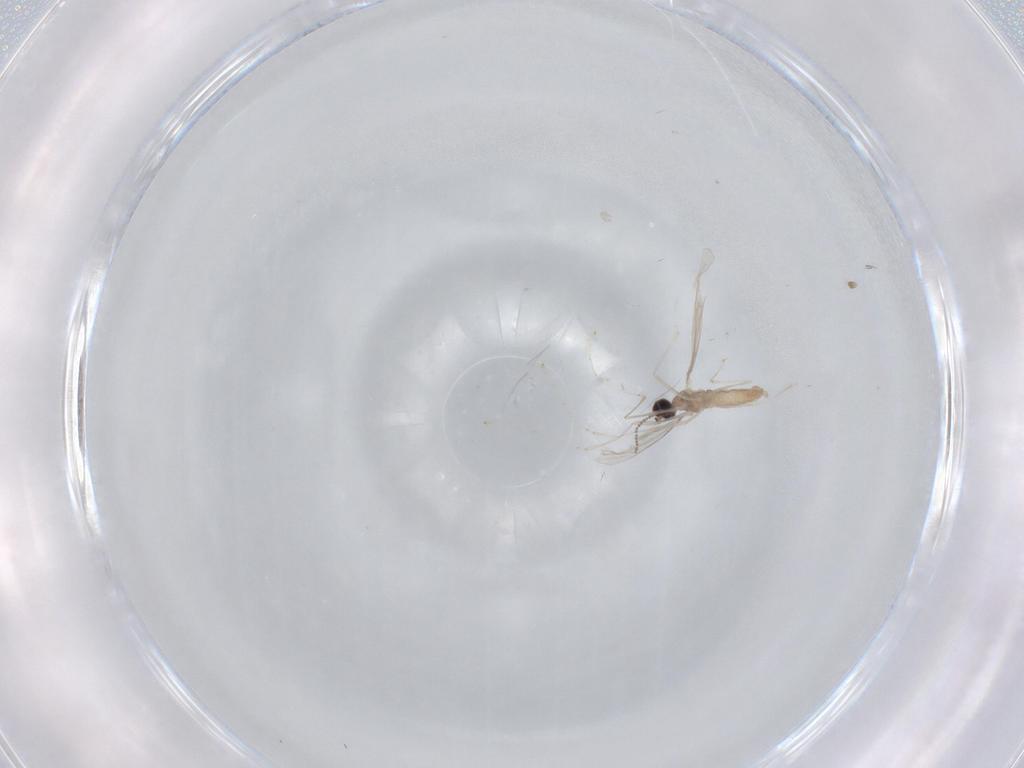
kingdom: Animalia
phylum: Arthropoda
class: Insecta
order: Diptera
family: Cecidomyiidae
